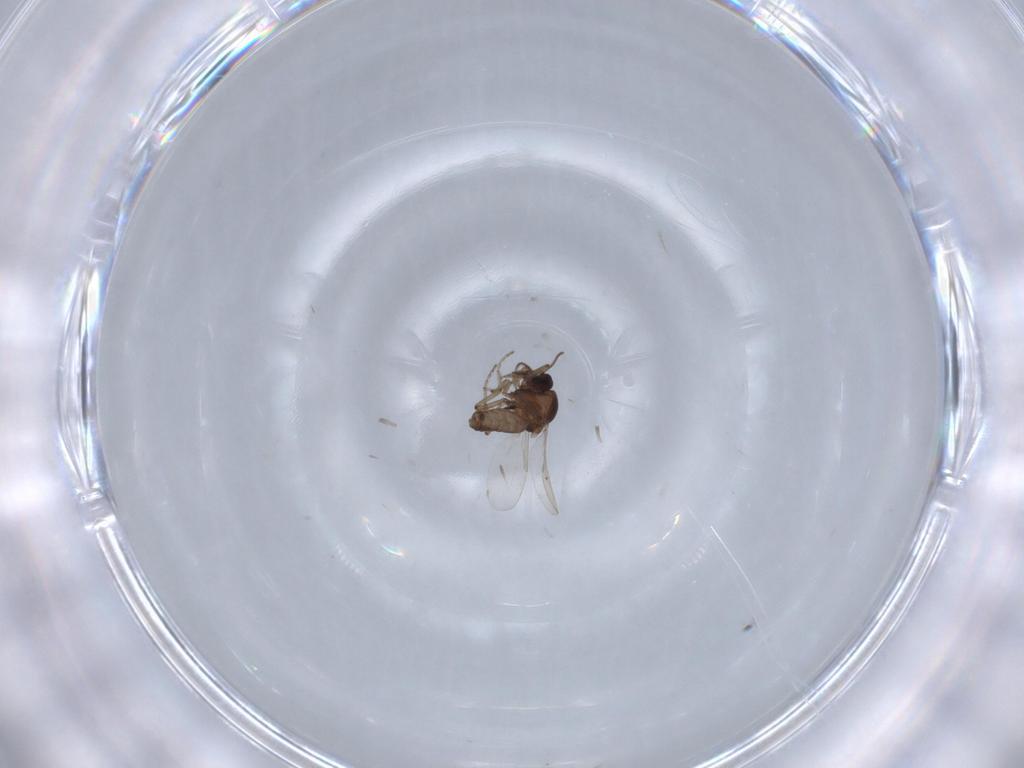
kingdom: Animalia
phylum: Arthropoda
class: Insecta
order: Diptera
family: Ceratopogonidae
